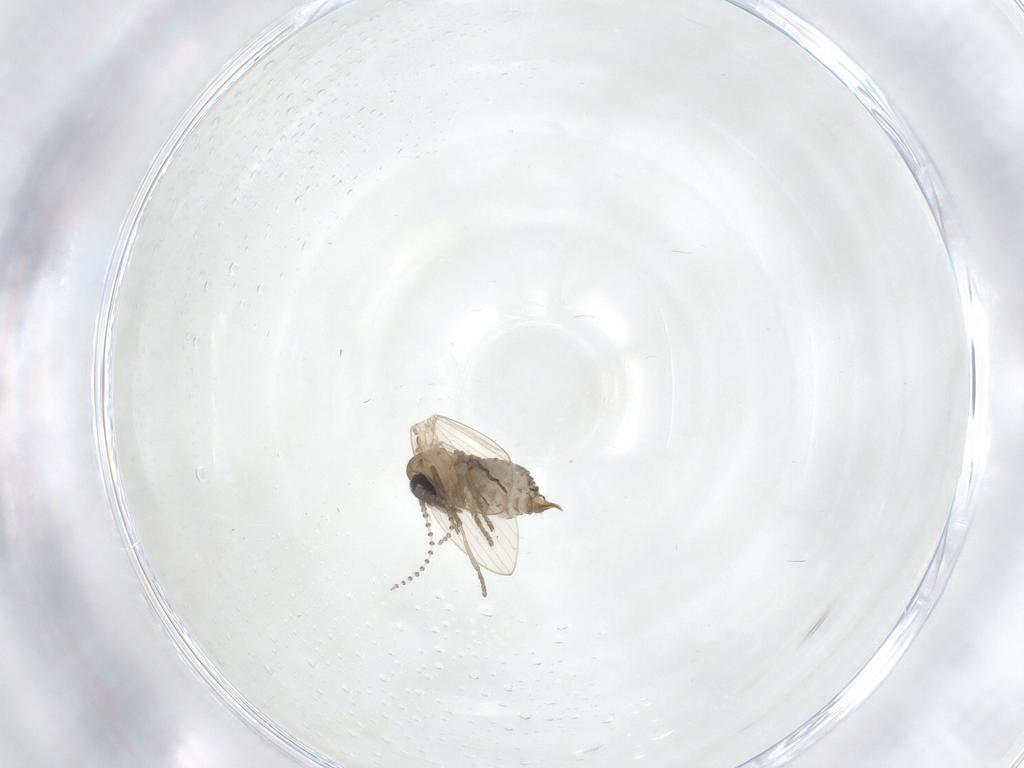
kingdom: Animalia
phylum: Arthropoda
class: Insecta
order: Diptera
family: Psychodidae
